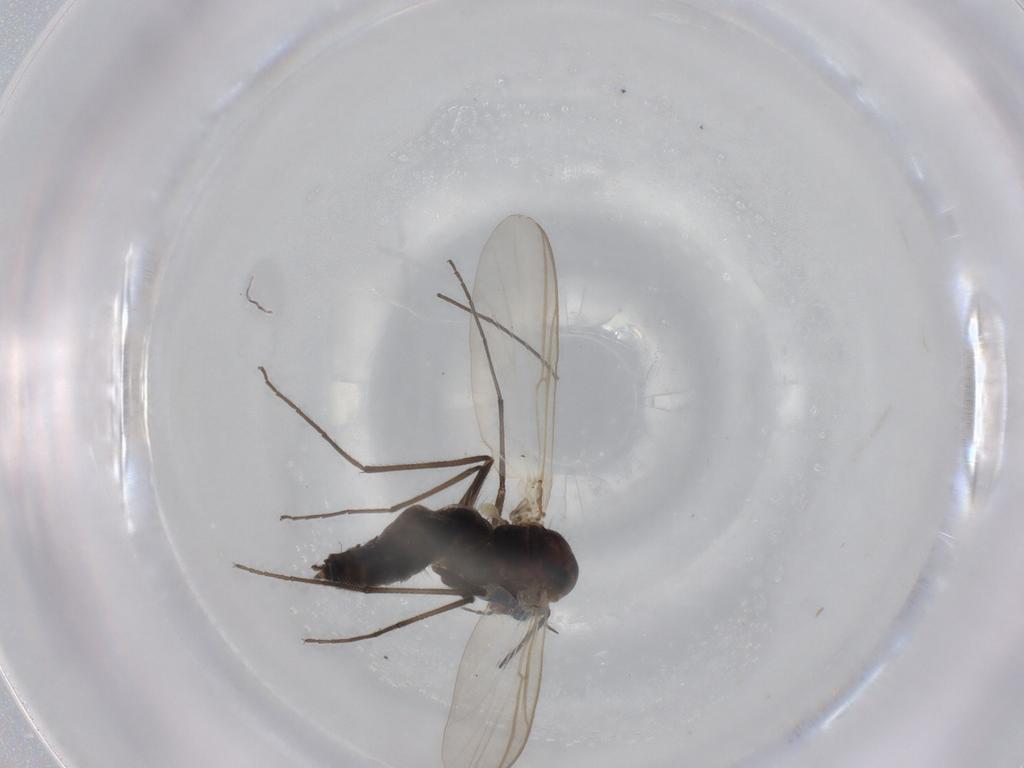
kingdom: Animalia
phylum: Arthropoda
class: Insecta
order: Diptera
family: Chironomidae
